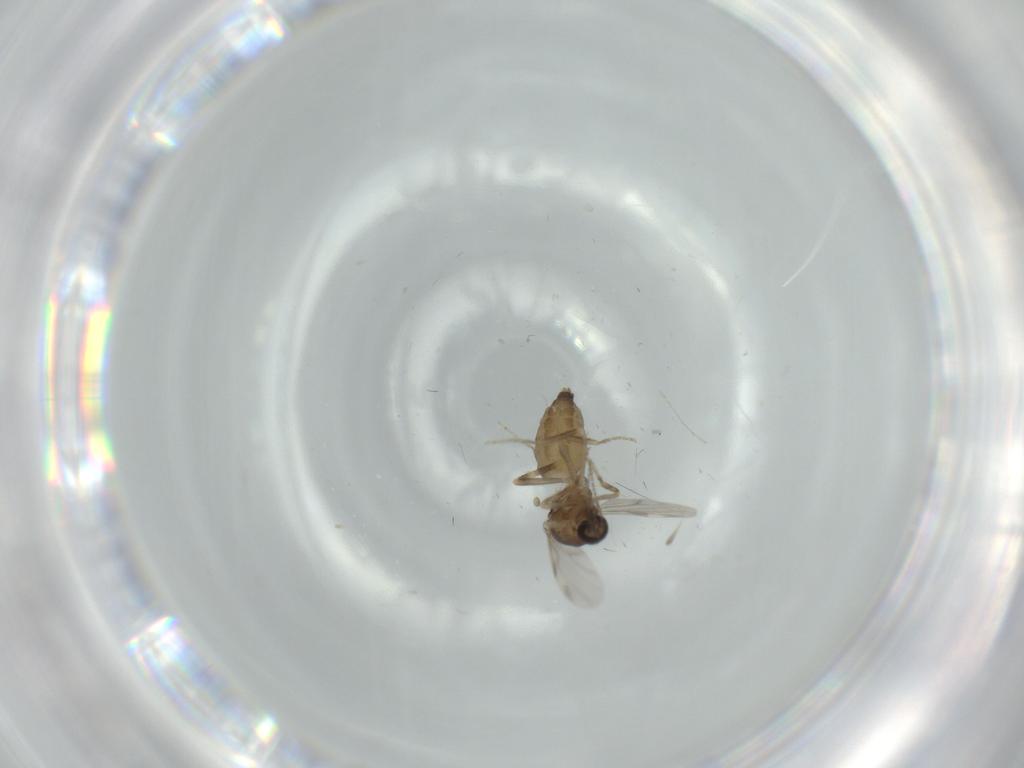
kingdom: Animalia
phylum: Arthropoda
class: Insecta
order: Diptera
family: Ceratopogonidae
